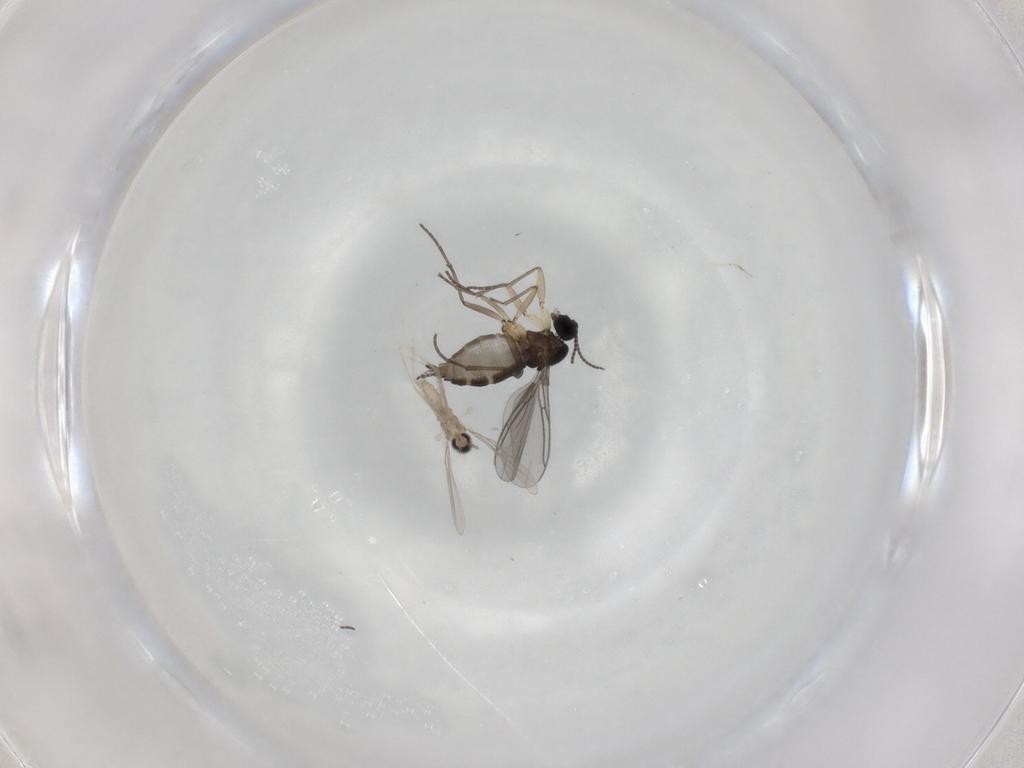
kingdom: Animalia
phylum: Arthropoda
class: Insecta
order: Diptera
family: Sciaridae
